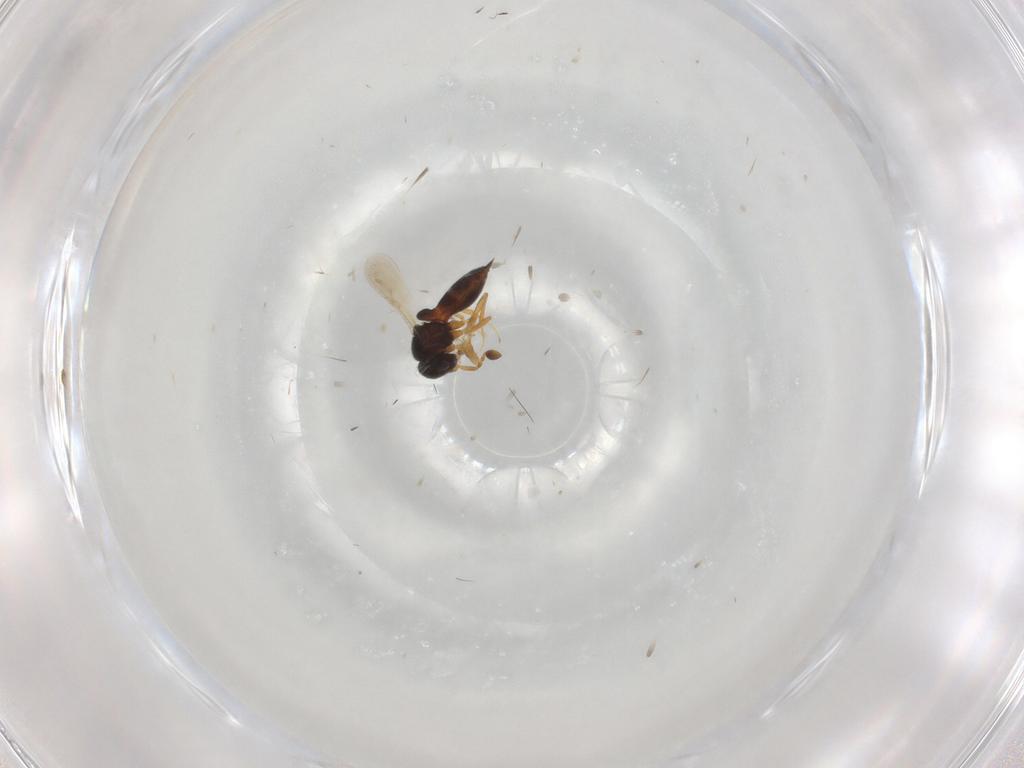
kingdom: Animalia
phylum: Arthropoda
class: Insecta
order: Hymenoptera
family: Scelionidae
